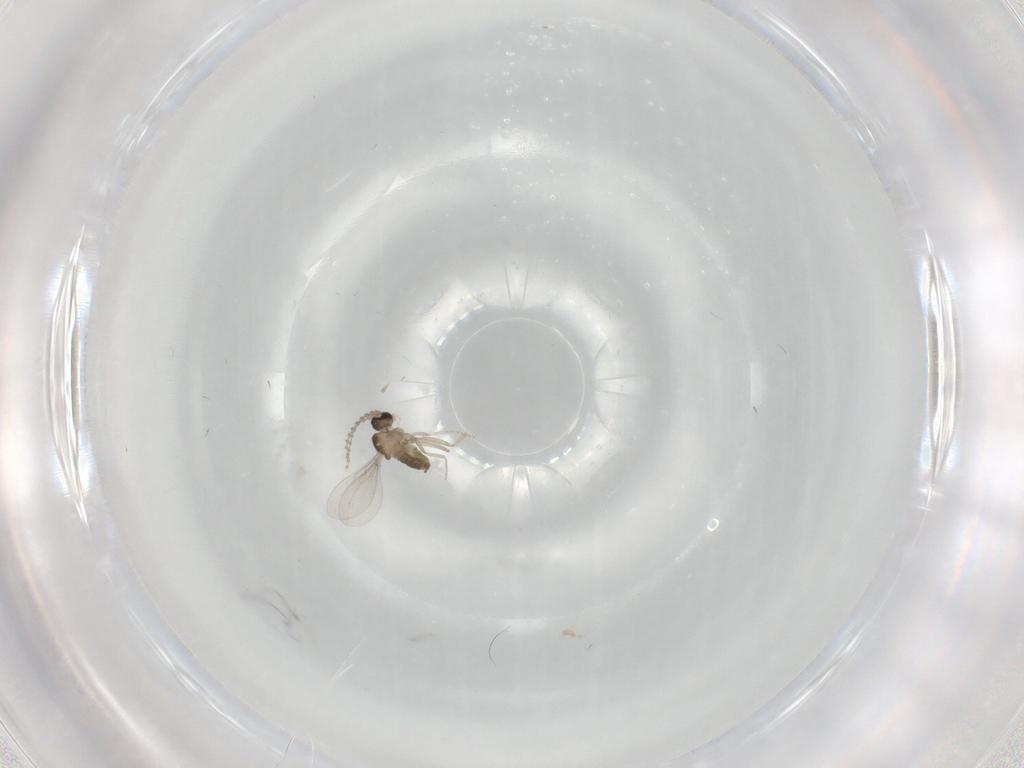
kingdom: Animalia
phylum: Arthropoda
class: Insecta
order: Diptera
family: Cecidomyiidae
